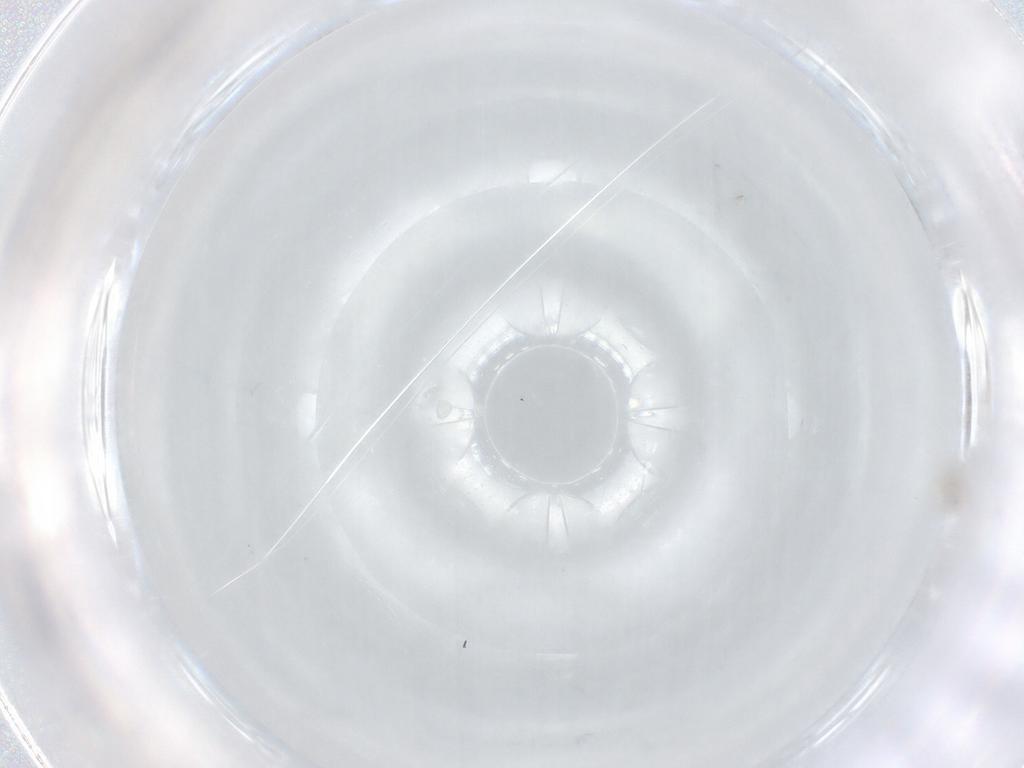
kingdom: Animalia
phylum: Arthropoda
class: Insecta
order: Hymenoptera
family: Mymaridae
